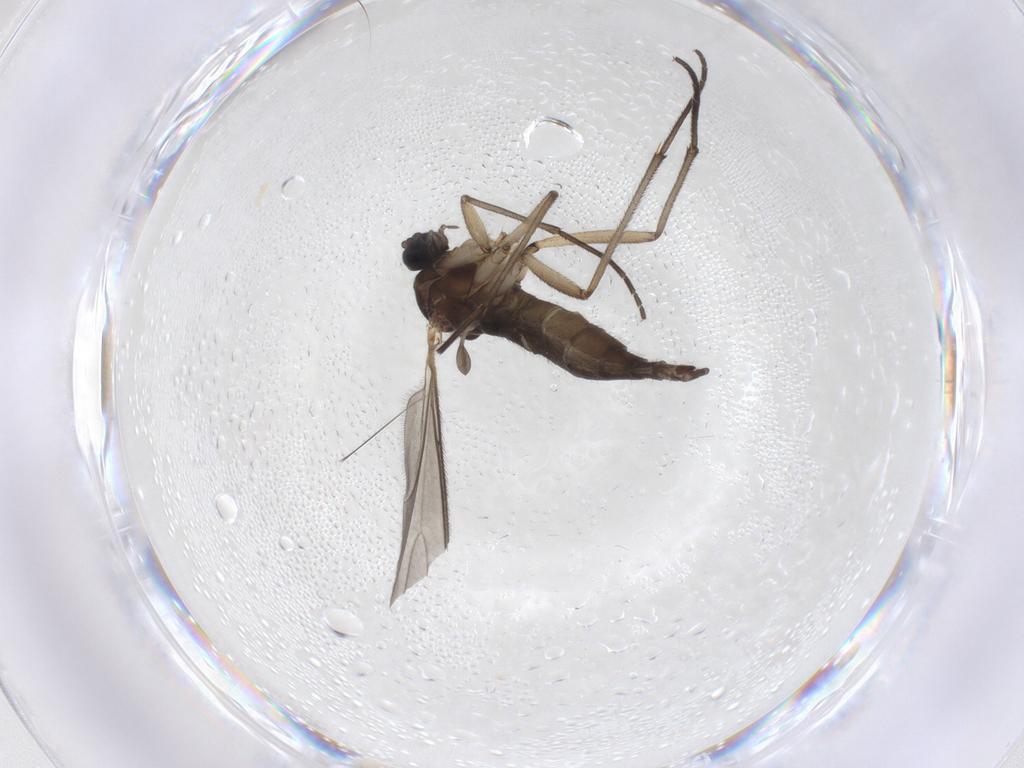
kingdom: Animalia
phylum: Arthropoda
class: Insecta
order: Diptera
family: Sciaridae
